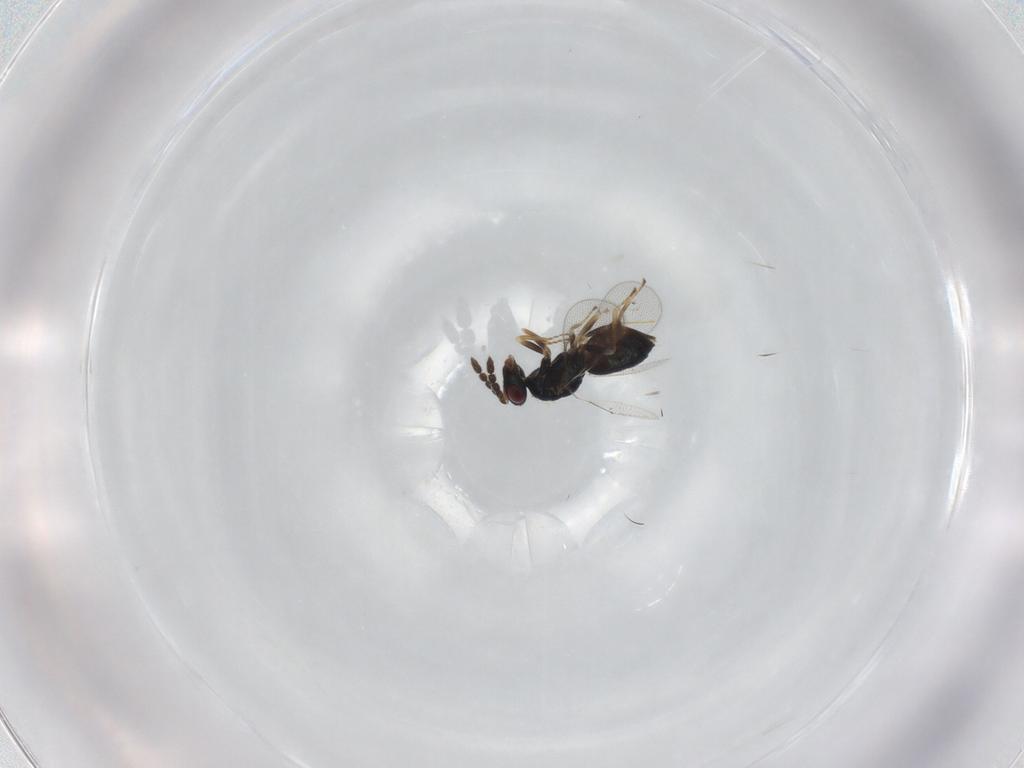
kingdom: Animalia
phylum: Arthropoda
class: Insecta
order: Hymenoptera
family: Eulophidae
